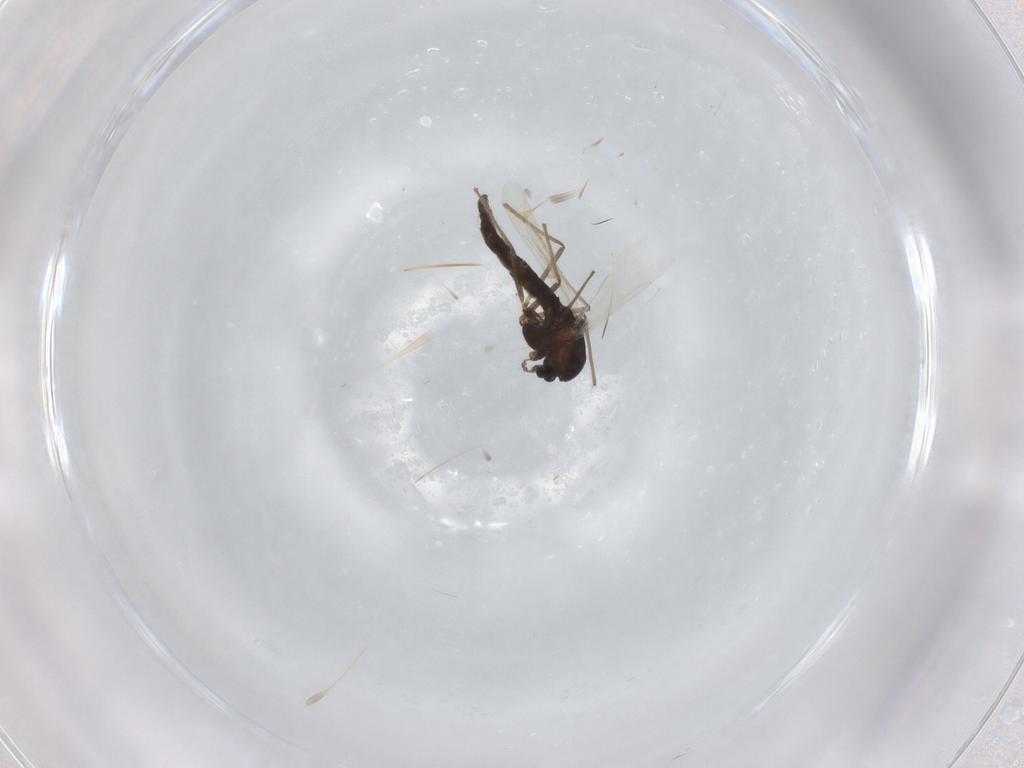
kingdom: Animalia
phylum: Arthropoda
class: Insecta
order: Diptera
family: Chironomidae
